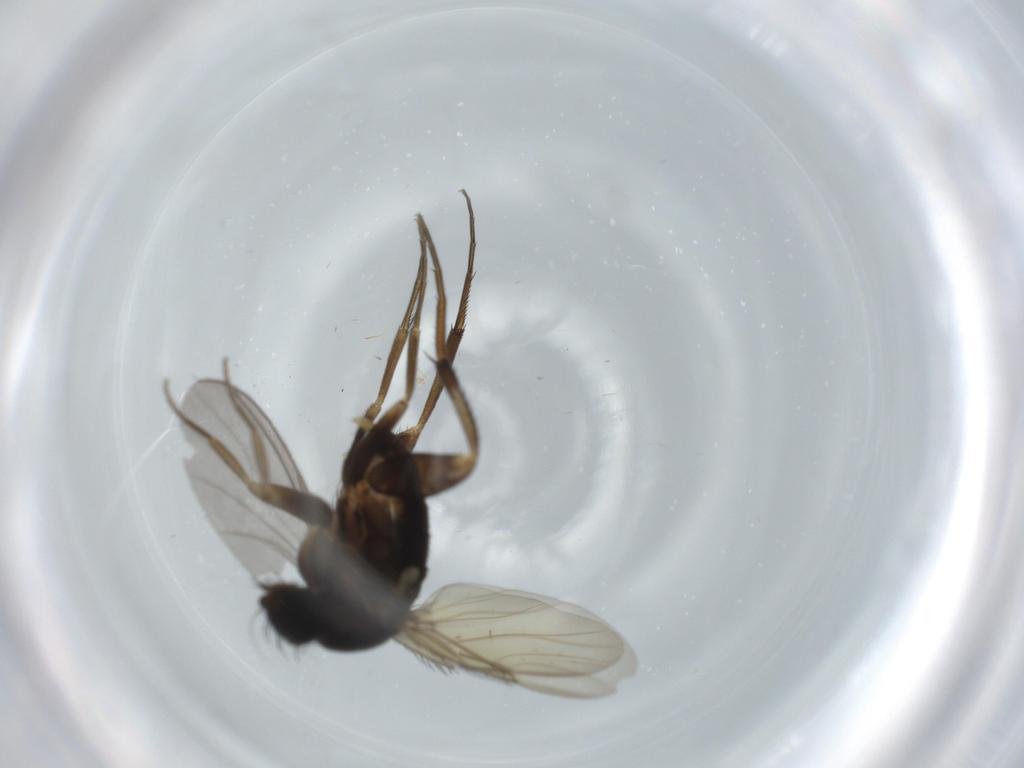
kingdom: Animalia
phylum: Arthropoda
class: Insecta
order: Diptera
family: Phoridae
